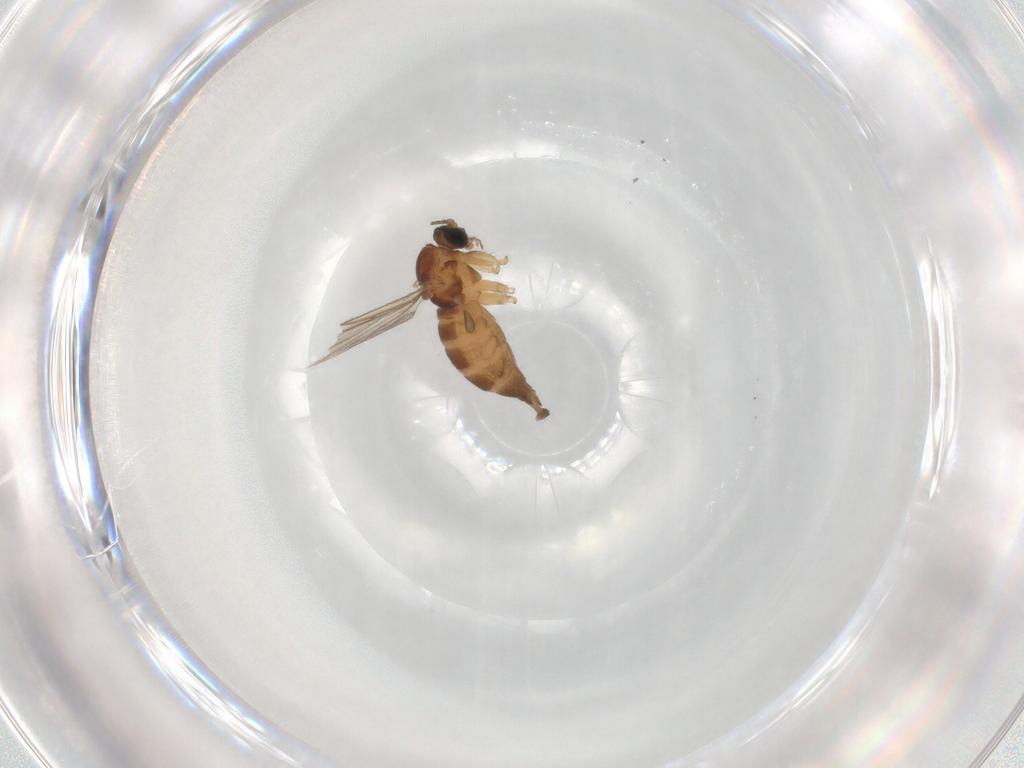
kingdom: Animalia
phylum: Arthropoda
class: Insecta
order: Diptera
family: Sciaridae
